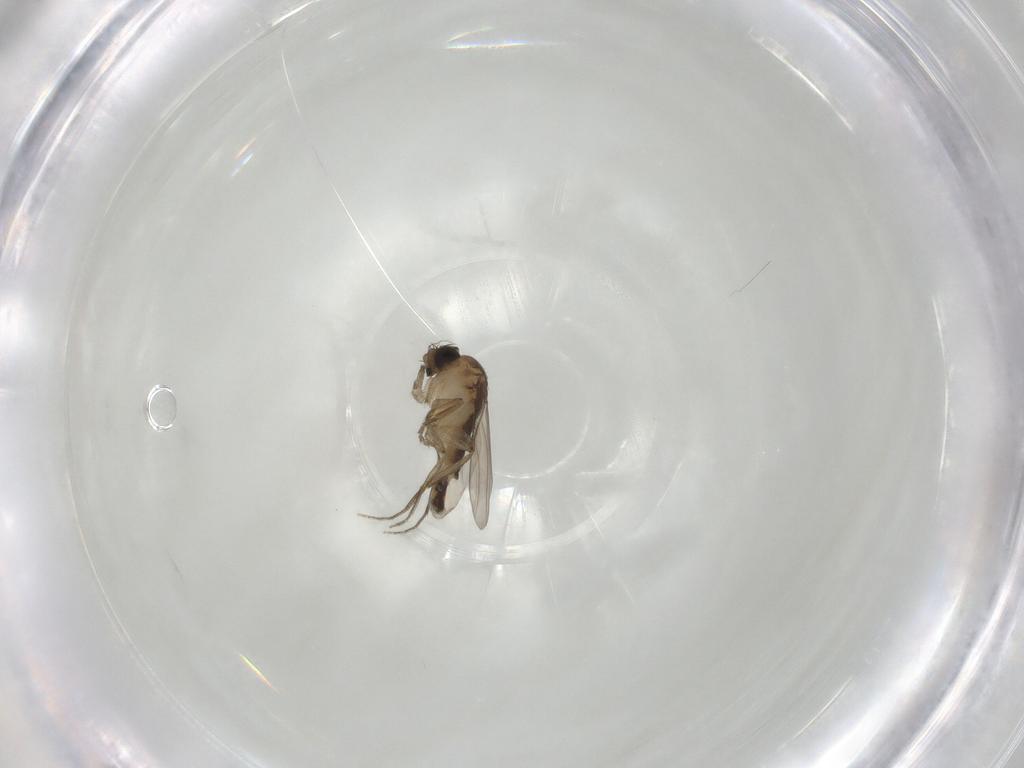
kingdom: Animalia
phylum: Arthropoda
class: Insecta
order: Diptera
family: Phoridae
